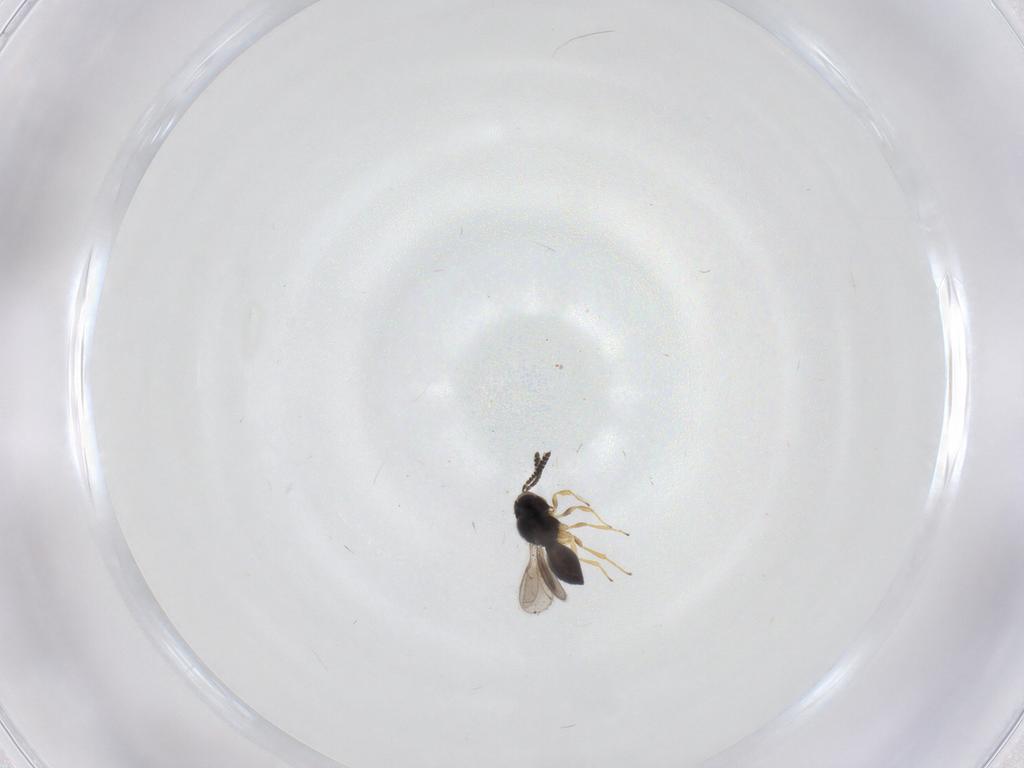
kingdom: Animalia
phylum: Arthropoda
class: Insecta
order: Hymenoptera
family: Scelionidae
